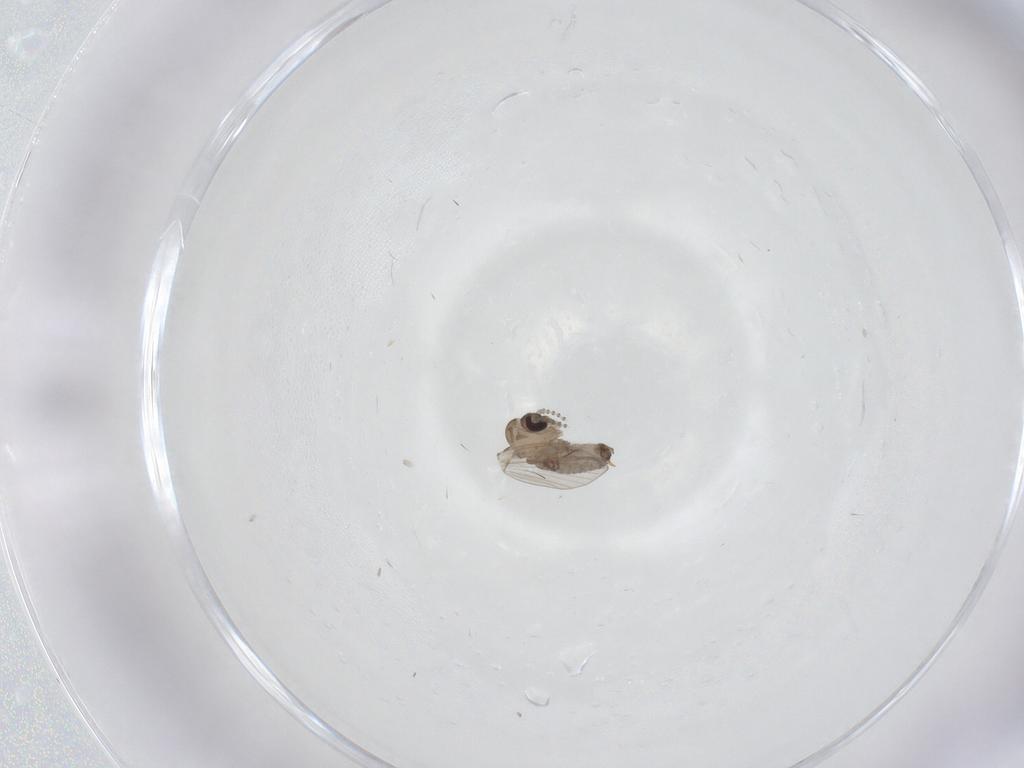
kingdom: Animalia
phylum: Arthropoda
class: Insecta
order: Diptera
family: Psychodidae
